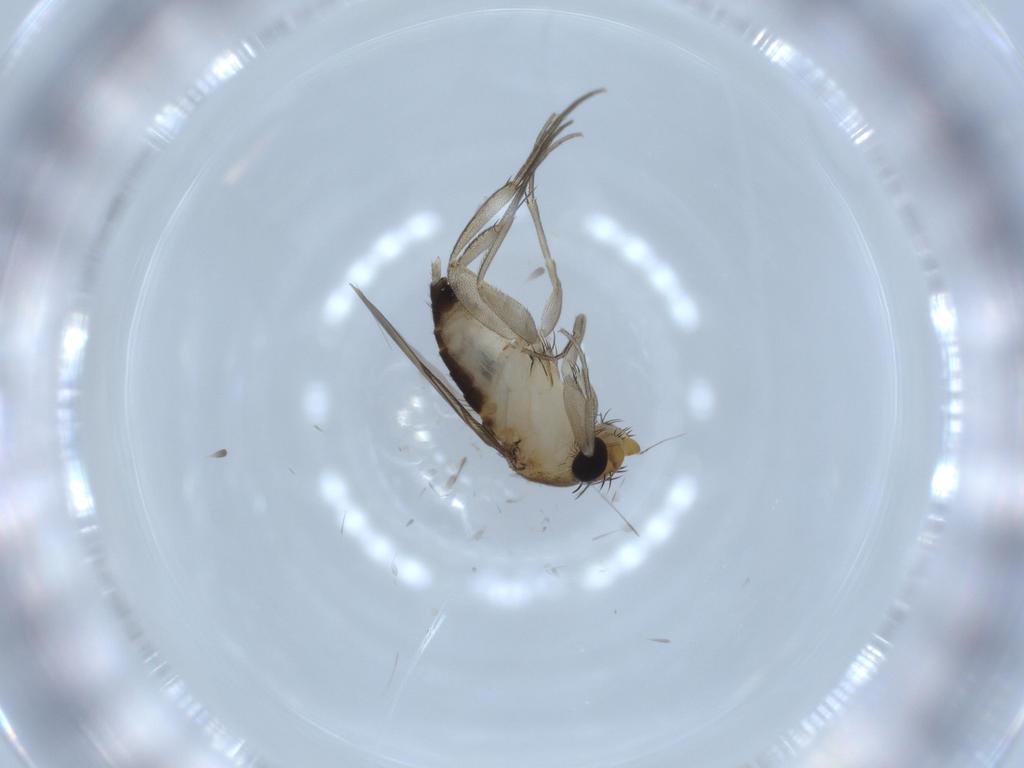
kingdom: Animalia
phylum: Arthropoda
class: Insecta
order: Diptera
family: Phoridae
